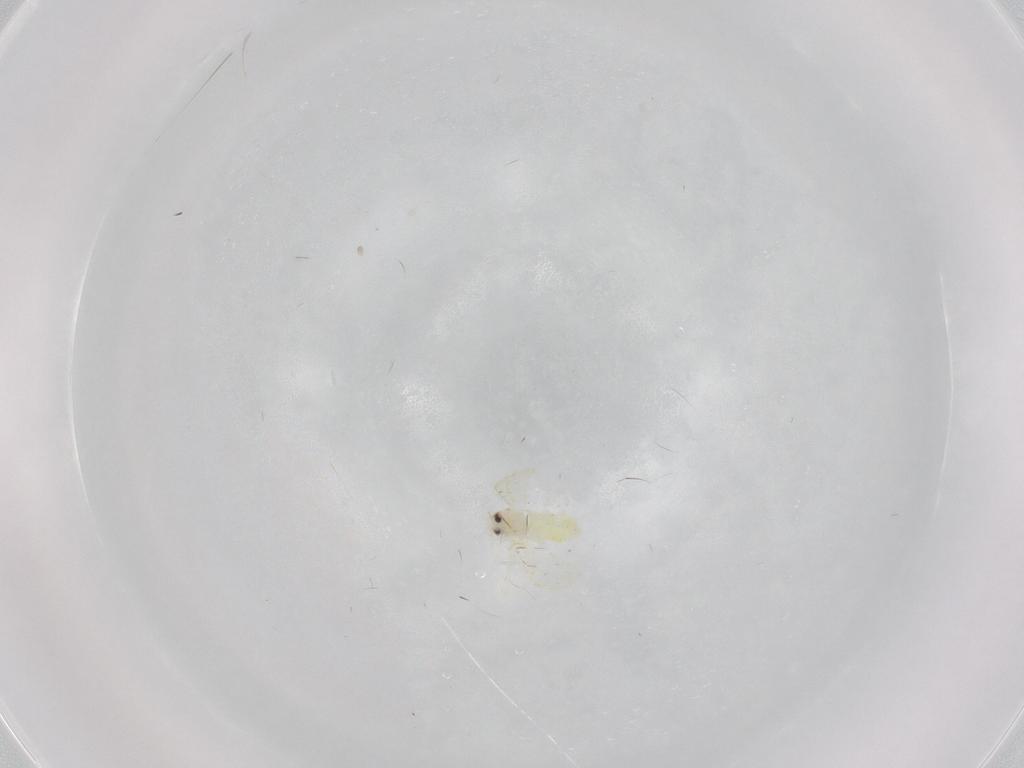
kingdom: Animalia
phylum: Arthropoda
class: Insecta
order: Hemiptera
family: Aleyrodidae
